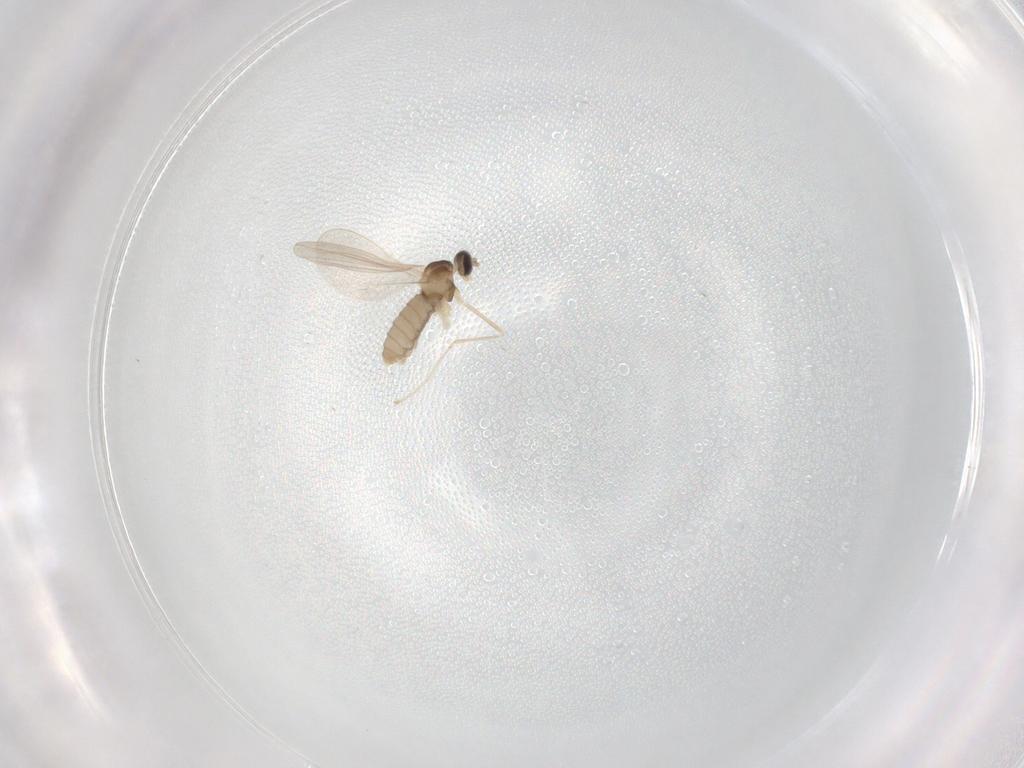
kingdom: Animalia
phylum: Arthropoda
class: Insecta
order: Diptera
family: Cecidomyiidae
